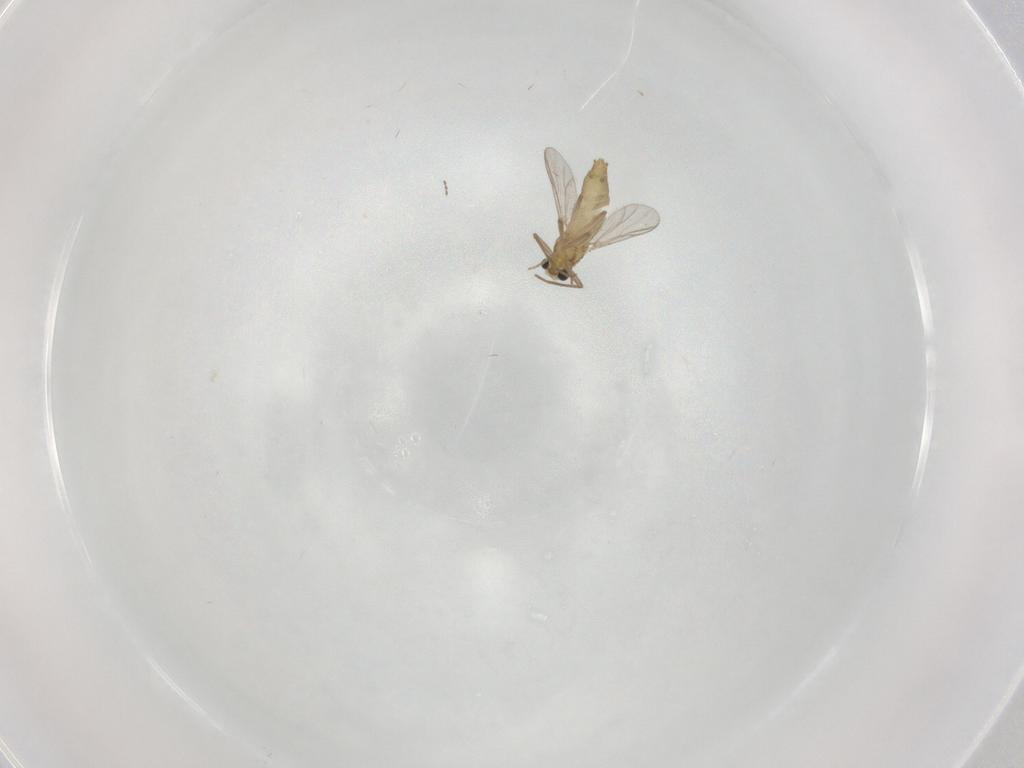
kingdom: Animalia
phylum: Arthropoda
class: Insecta
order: Diptera
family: Chironomidae
